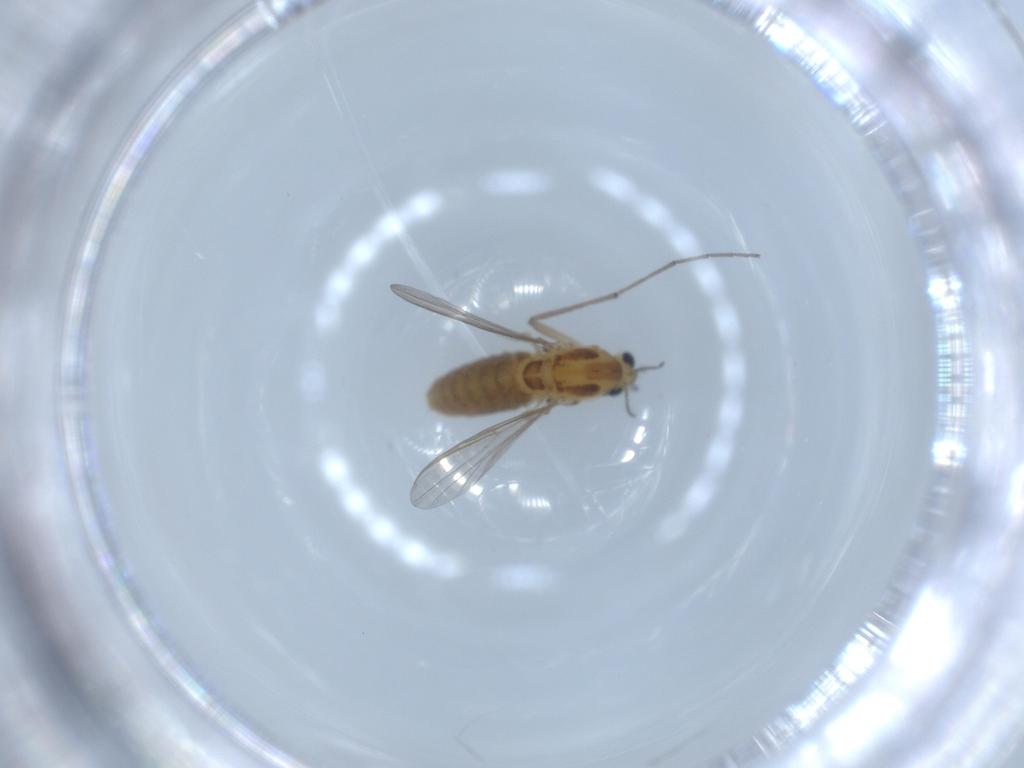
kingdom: Animalia
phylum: Arthropoda
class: Insecta
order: Diptera
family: Chironomidae
